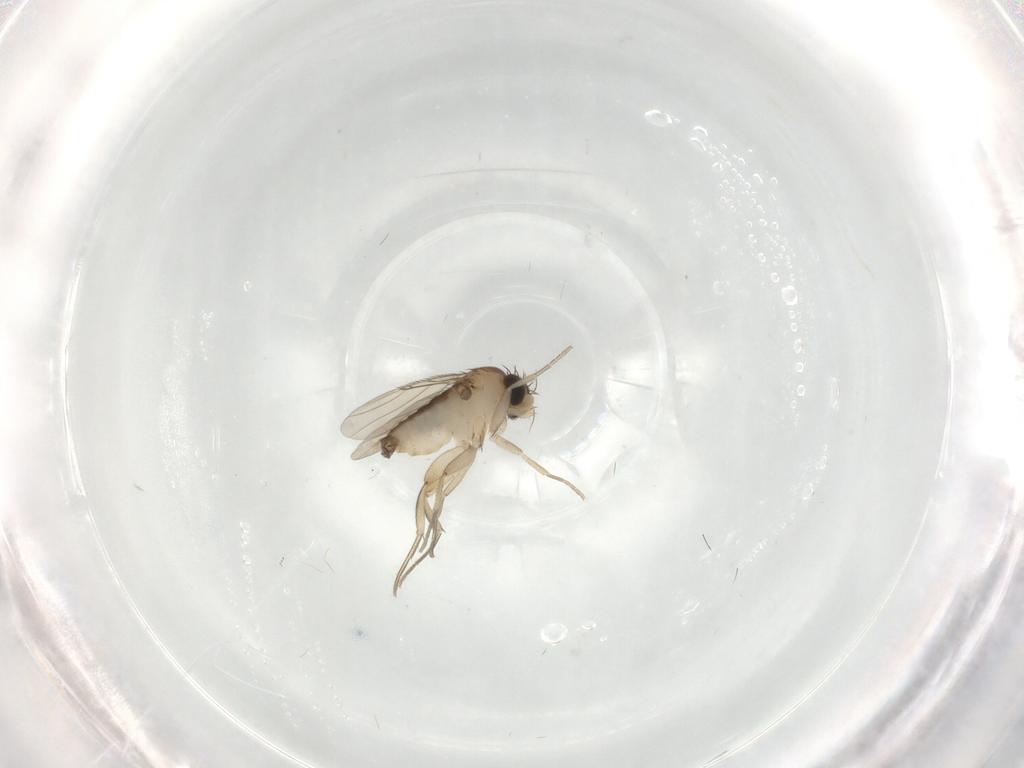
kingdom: Animalia
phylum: Arthropoda
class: Insecta
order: Diptera
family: Phoridae
